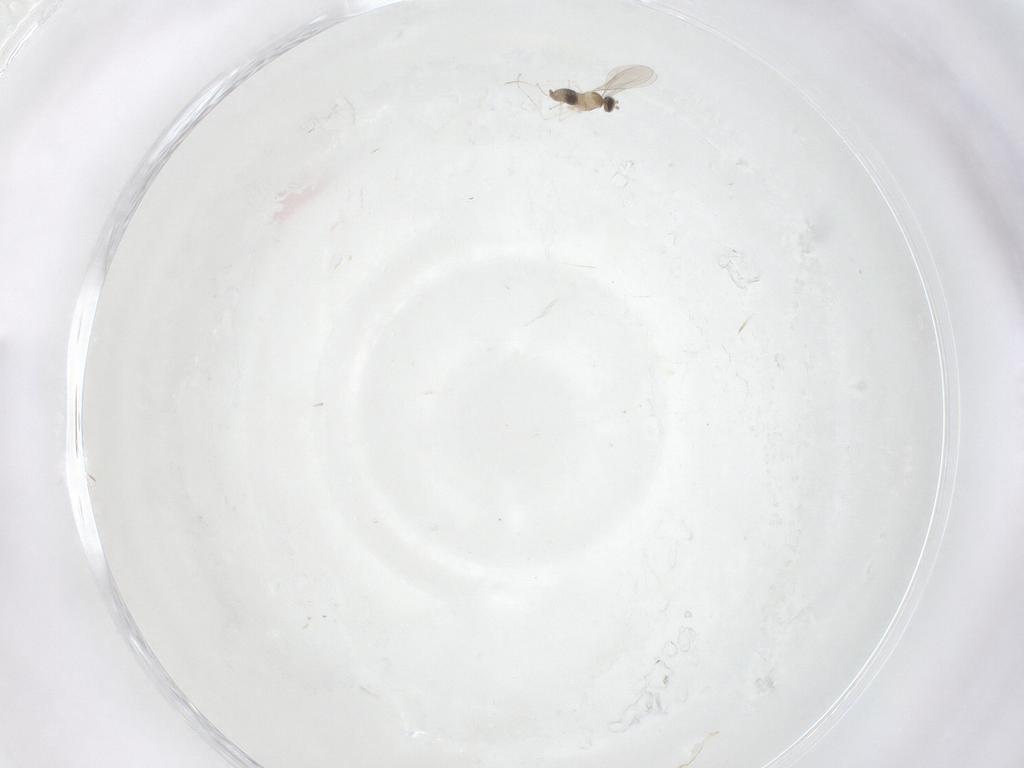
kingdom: Animalia
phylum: Arthropoda
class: Insecta
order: Diptera
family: Cecidomyiidae
